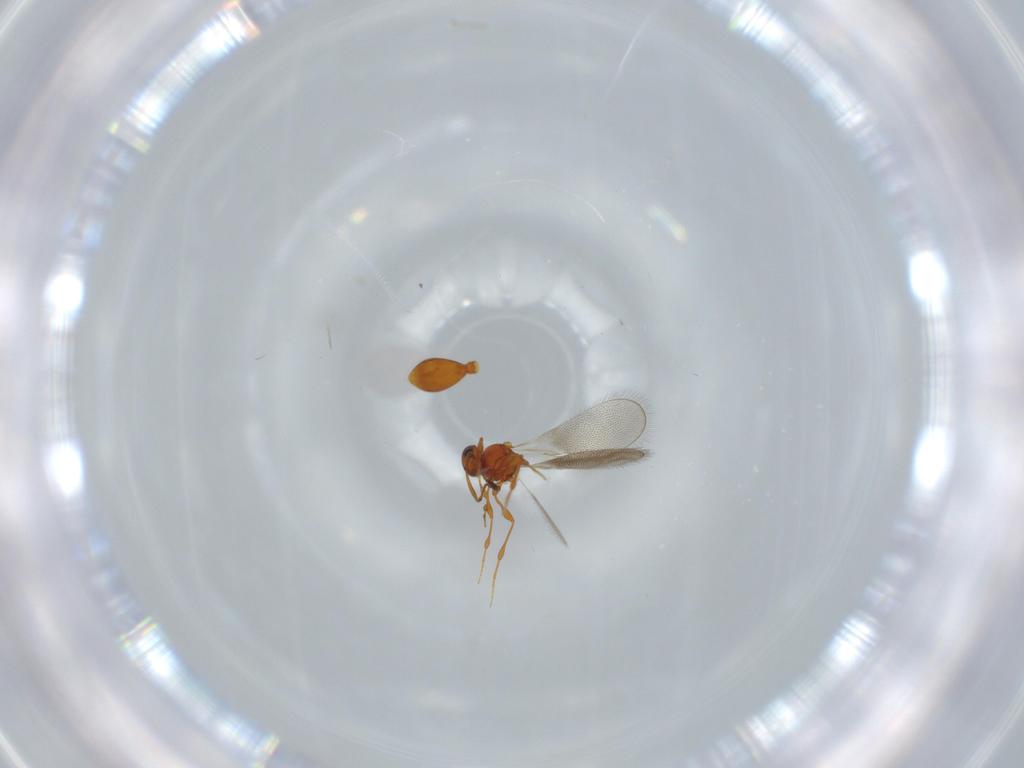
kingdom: Animalia
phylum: Arthropoda
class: Insecta
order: Hymenoptera
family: Platygastridae
